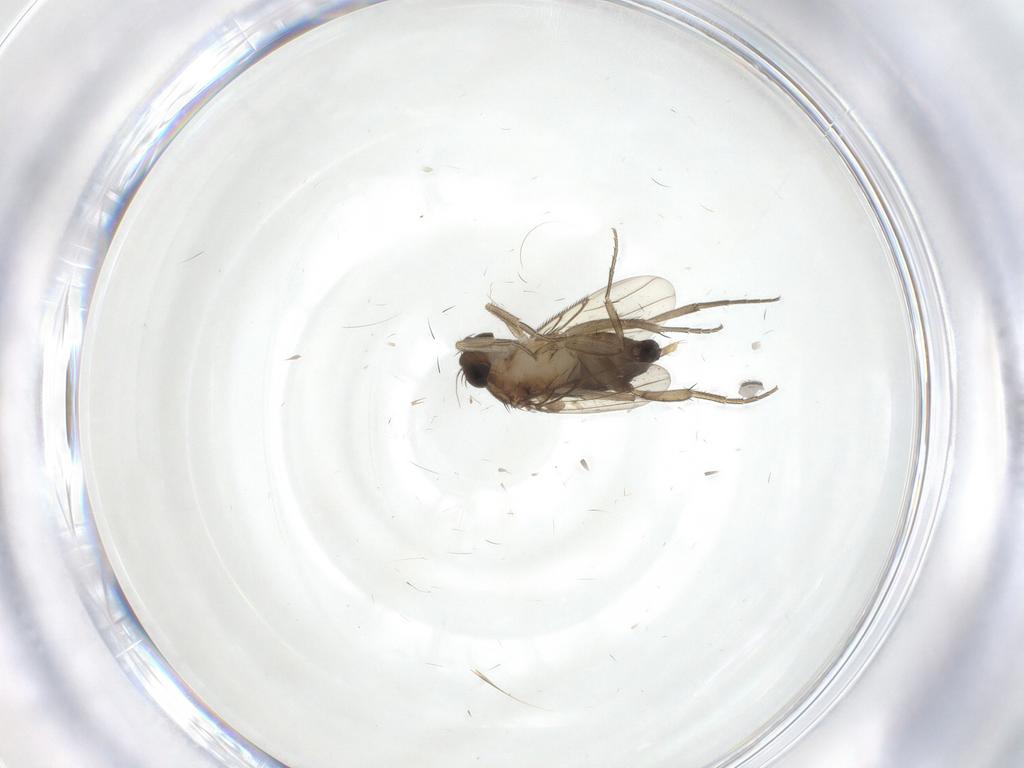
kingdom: Animalia
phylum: Arthropoda
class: Insecta
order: Diptera
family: Chironomidae
